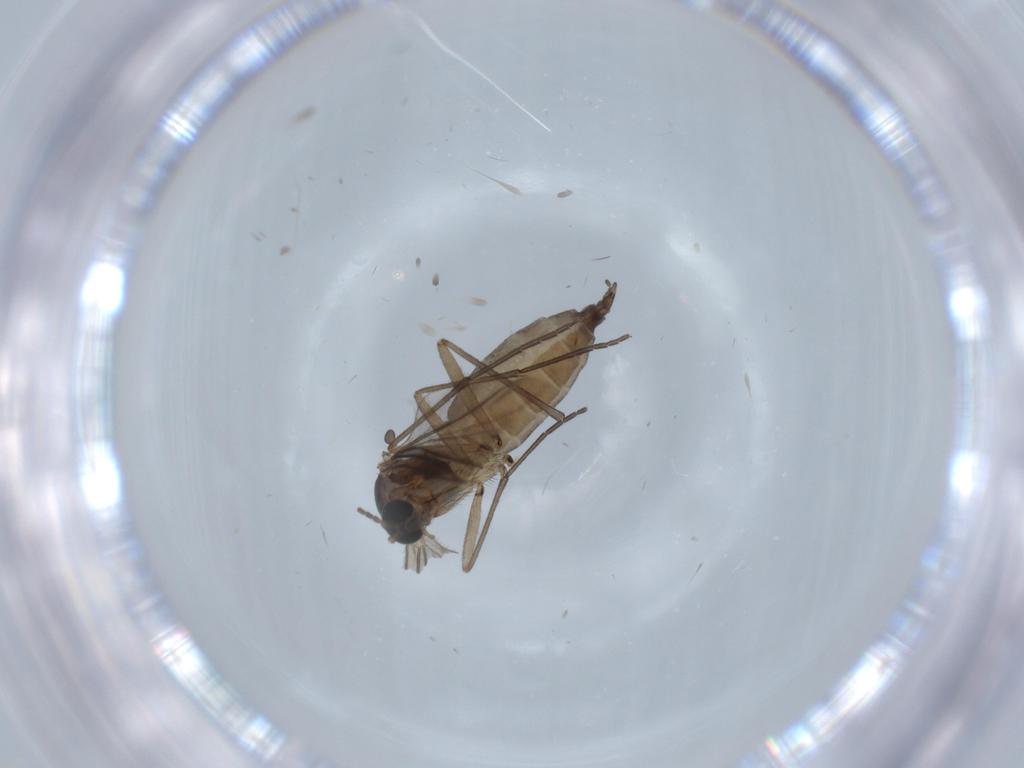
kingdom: Animalia
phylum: Arthropoda
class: Insecta
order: Diptera
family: Sciaridae
